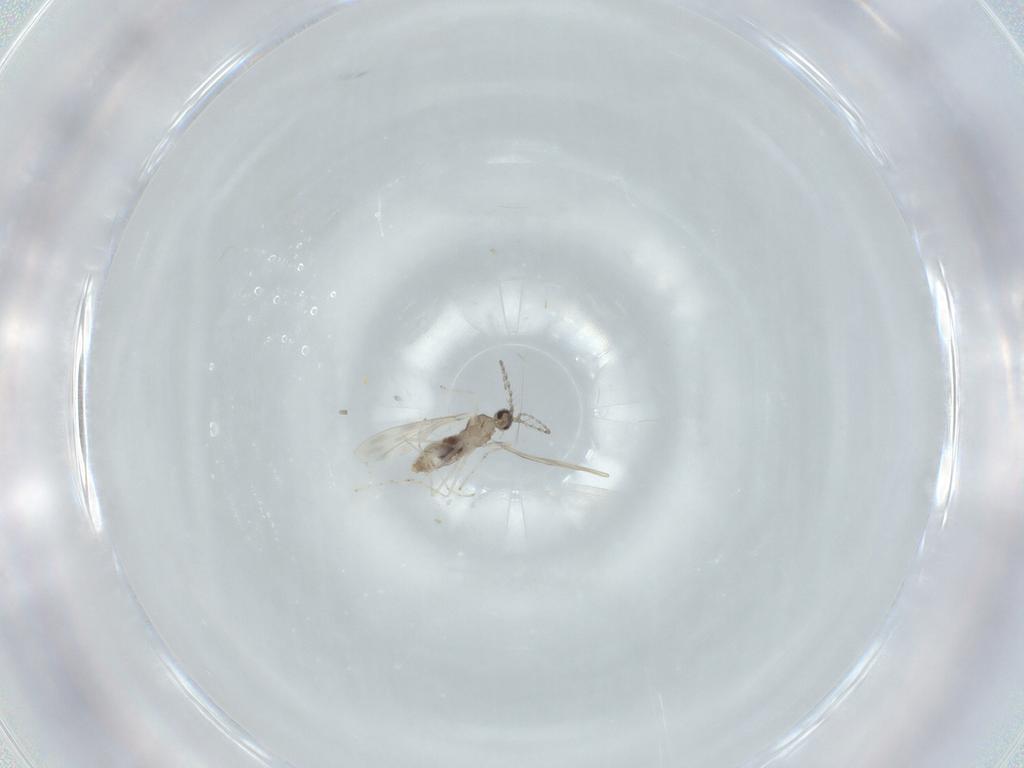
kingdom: Animalia
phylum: Arthropoda
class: Insecta
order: Diptera
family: Cecidomyiidae
